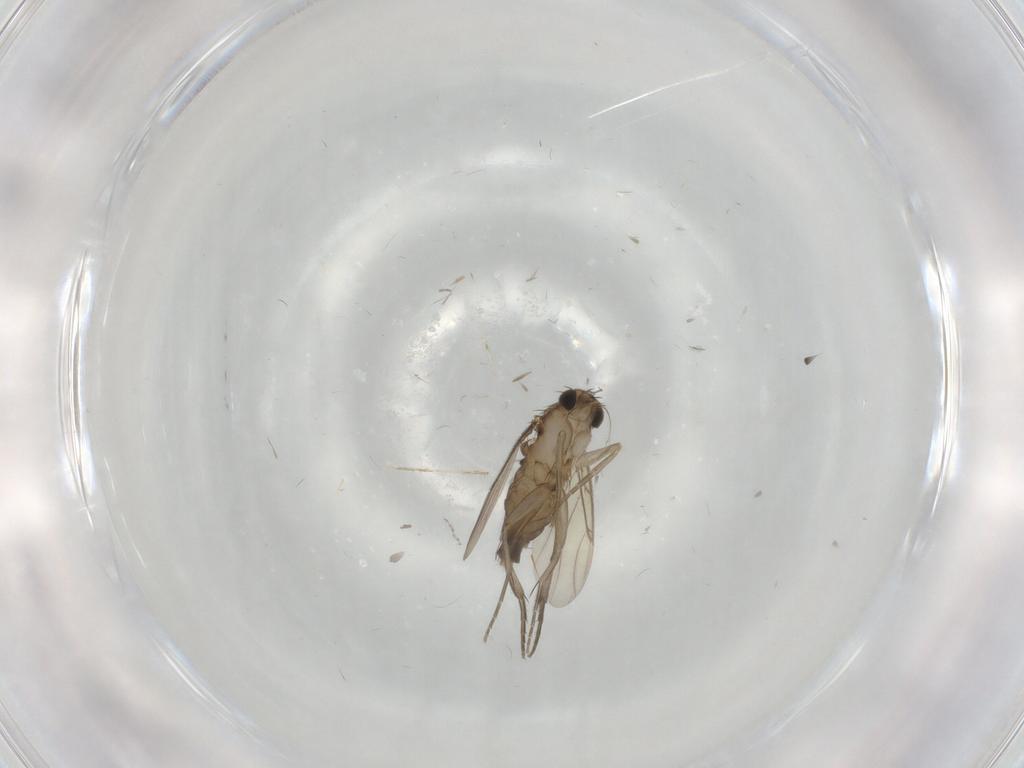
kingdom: Animalia
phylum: Arthropoda
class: Insecta
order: Diptera
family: Phoridae
